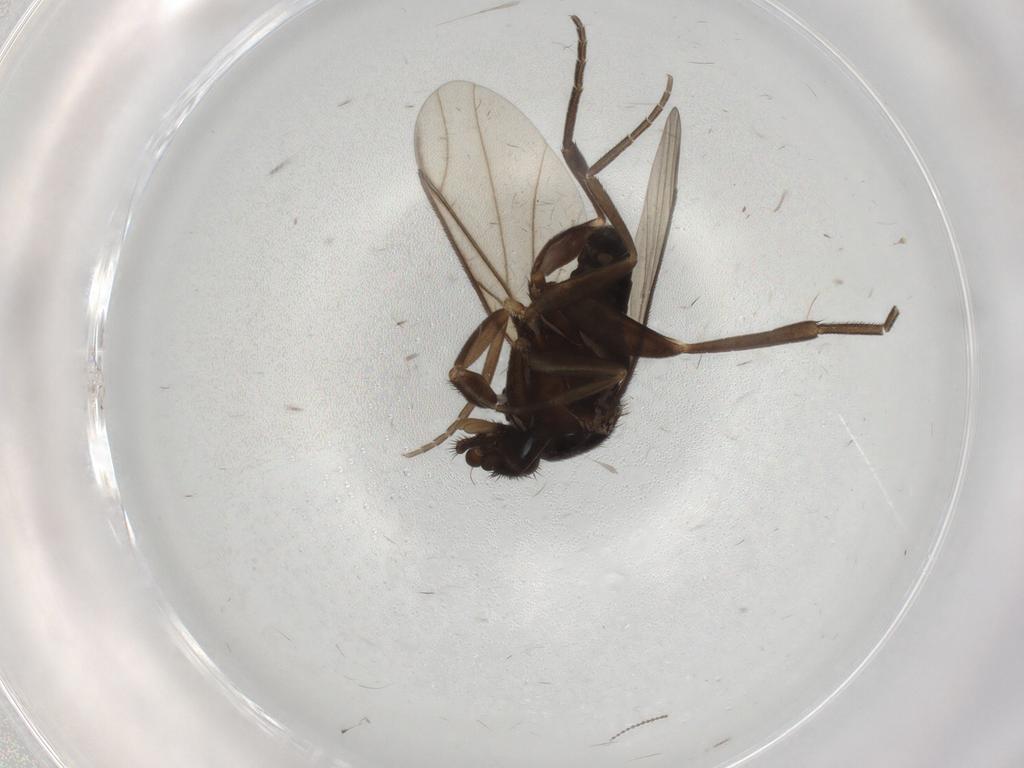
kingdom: Animalia
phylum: Arthropoda
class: Insecta
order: Diptera
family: Phoridae
